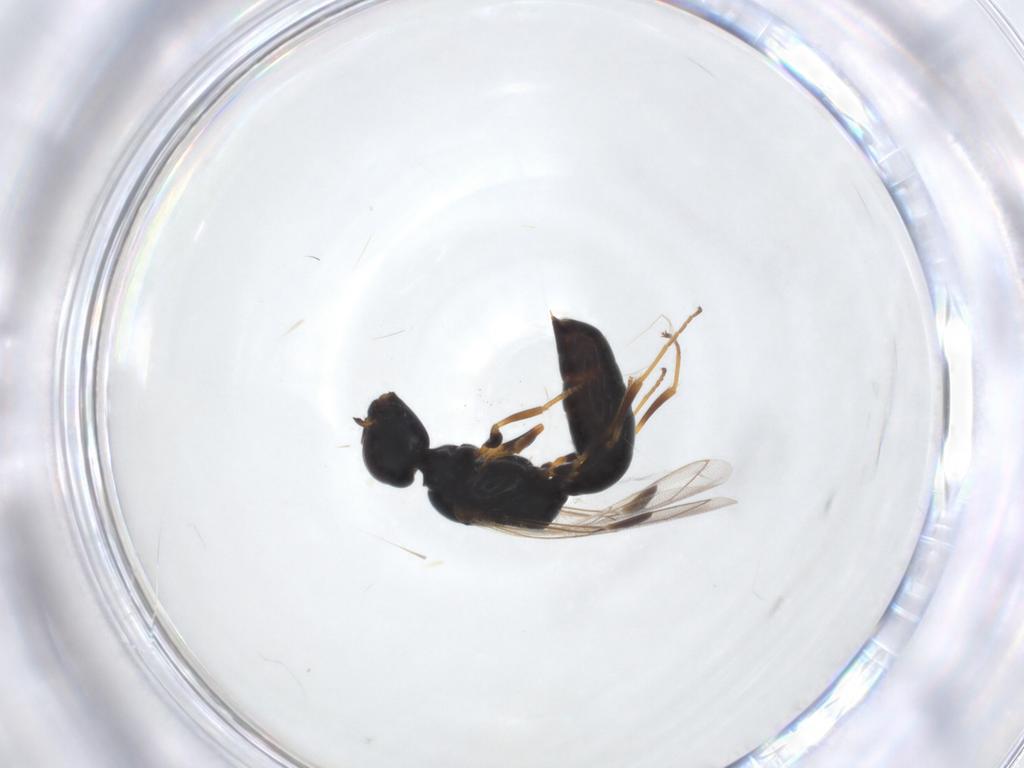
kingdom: Animalia
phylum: Arthropoda
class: Insecta
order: Hymenoptera
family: Pemphredonidae
